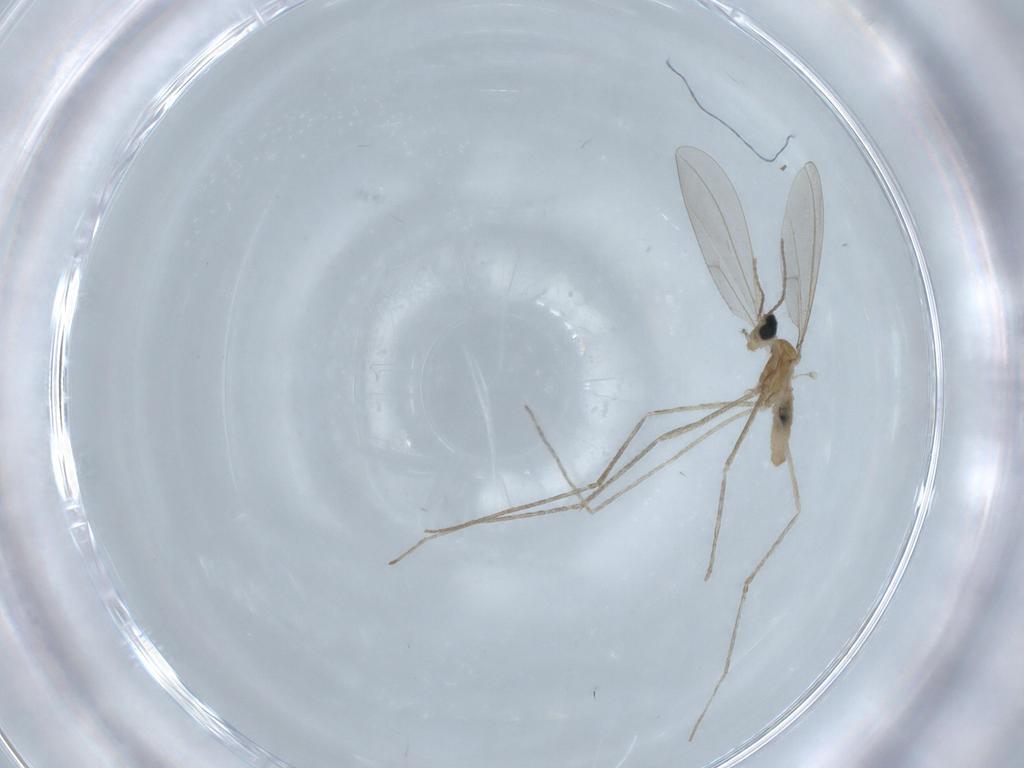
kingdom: Animalia
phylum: Arthropoda
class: Insecta
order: Diptera
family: Cecidomyiidae
